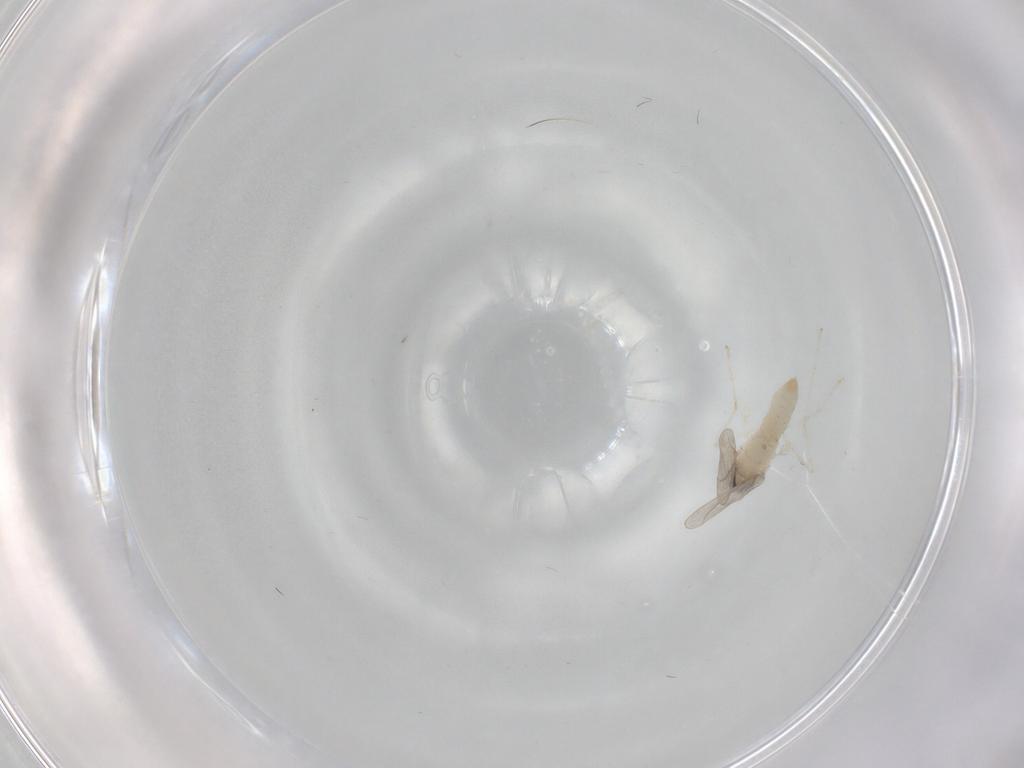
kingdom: Animalia
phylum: Arthropoda
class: Insecta
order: Diptera
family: Cecidomyiidae
